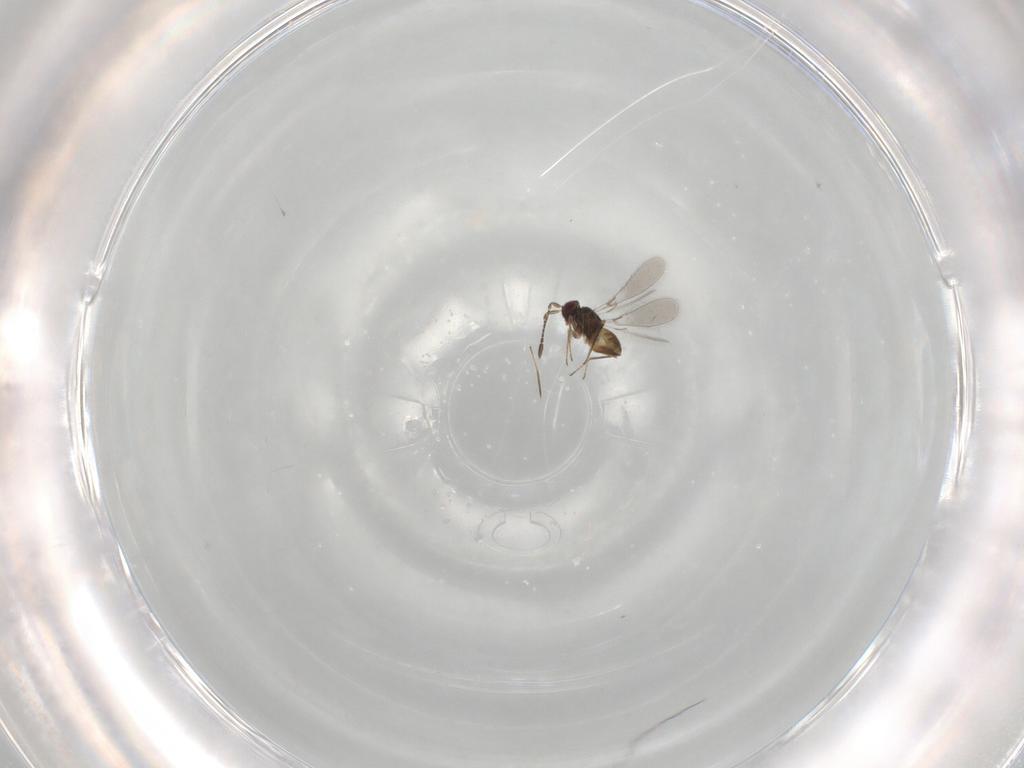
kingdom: Animalia
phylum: Arthropoda
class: Insecta
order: Hymenoptera
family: Mymaridae
